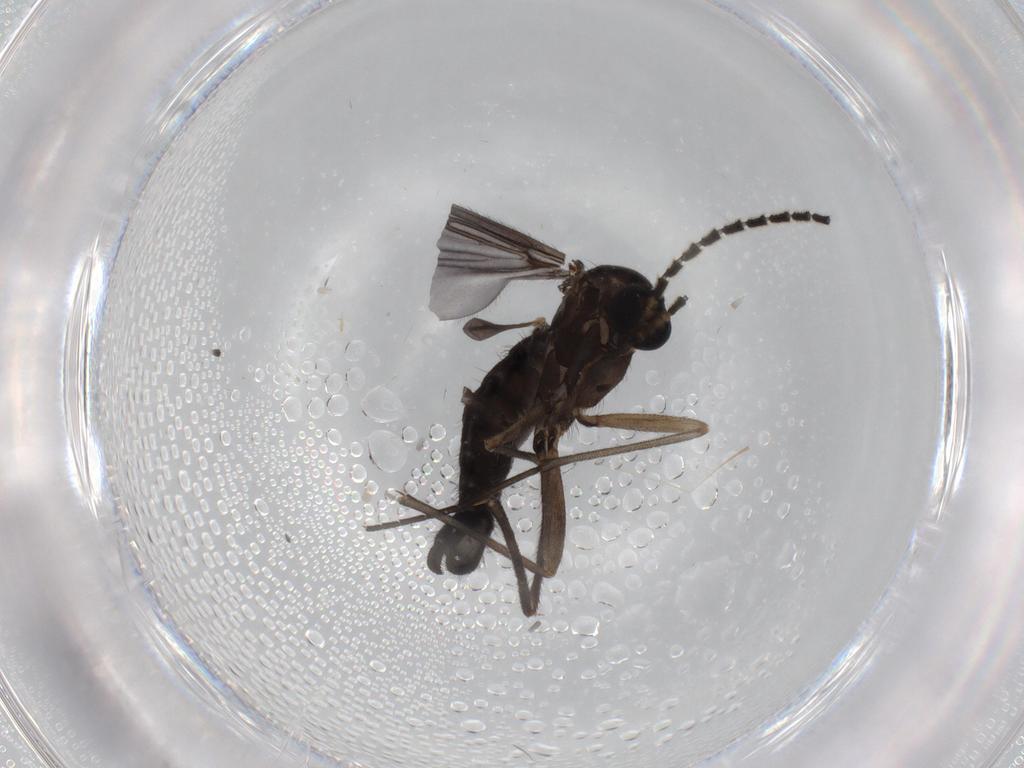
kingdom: Animalia
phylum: Arthropoda
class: Insecta
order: Diptera
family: Sciaridae
